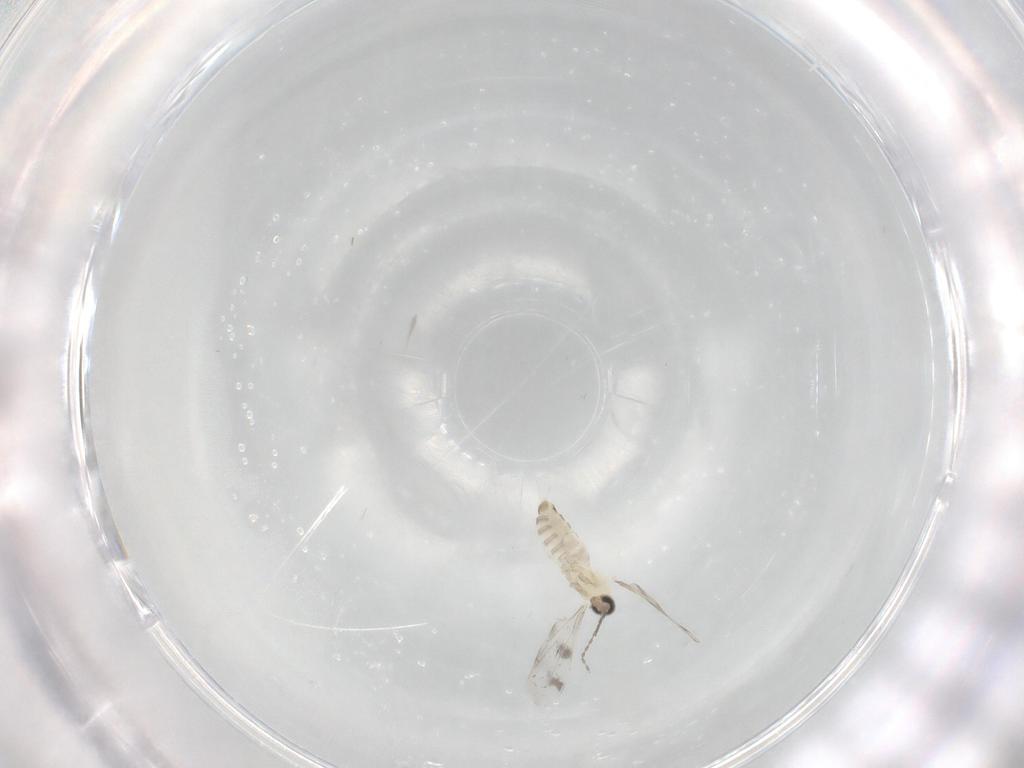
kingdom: Animalia
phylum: Arthropoda
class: Insecta
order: Diptera
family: Cecidomyiidae
